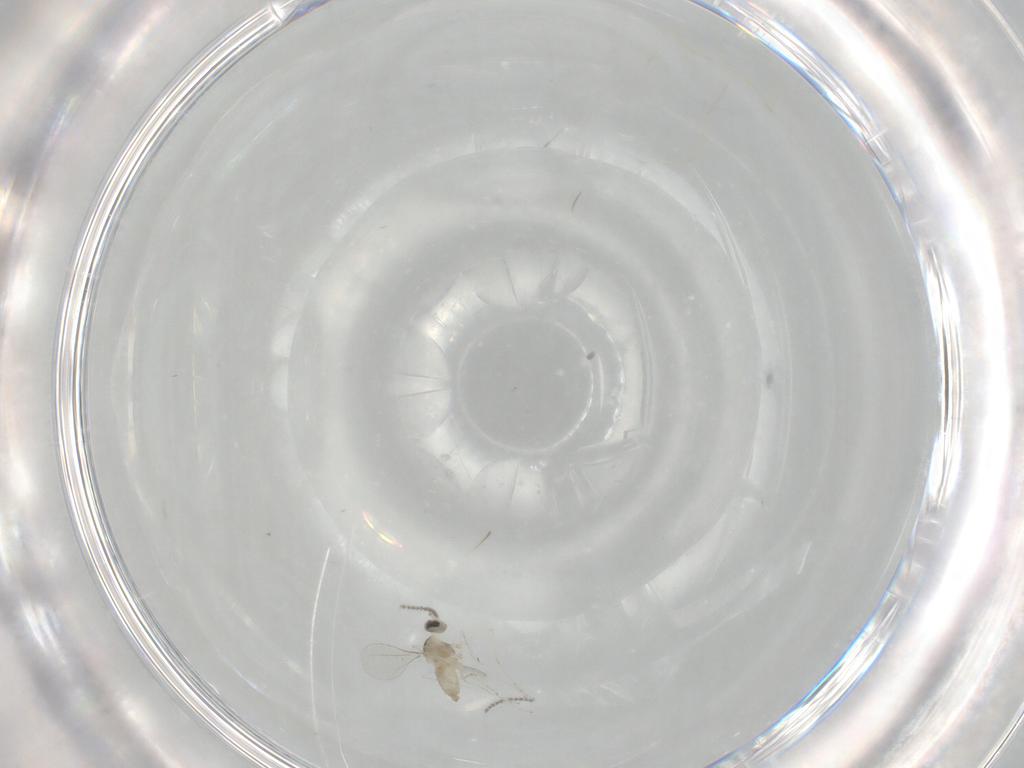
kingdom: Animalia
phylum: Arthropoda
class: Insecta
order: Diptera
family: Cecidomyiidae
